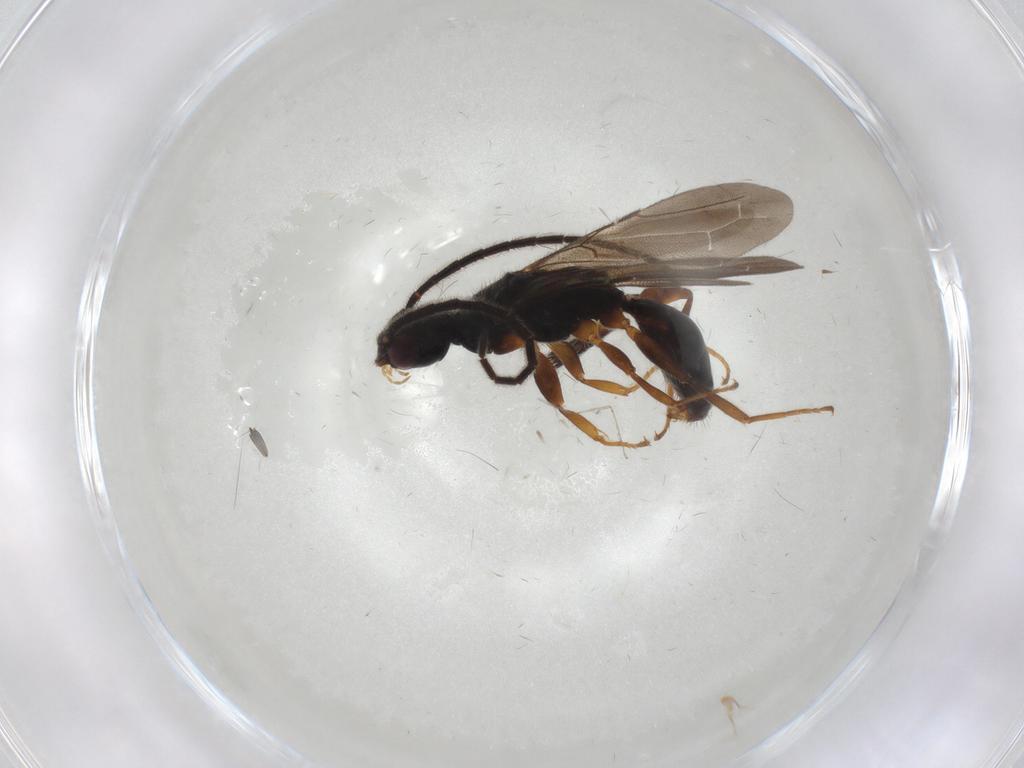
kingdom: Animalia
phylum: Arthropoda
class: Insecta
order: Diptera
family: Dolichopodidae
